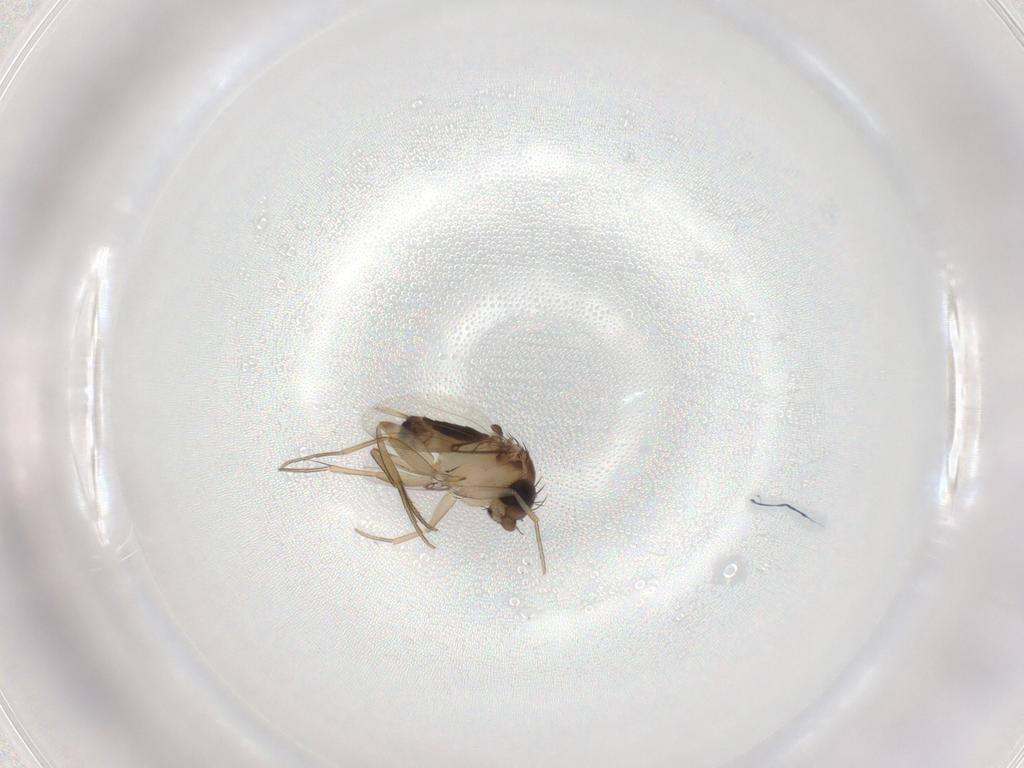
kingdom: Animalia
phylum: Arthropoda
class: Insecta
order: Diptera
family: Phoridae
